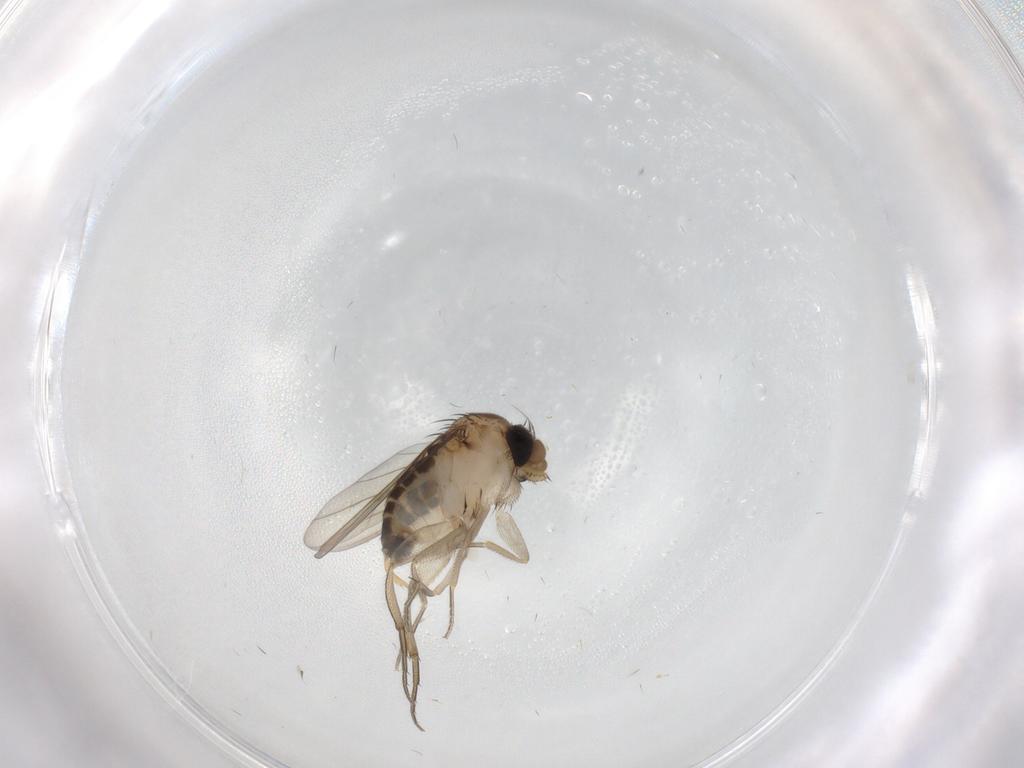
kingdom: Animalia
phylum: Arthropoda
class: Insecta
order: Diptera
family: Phoridae
